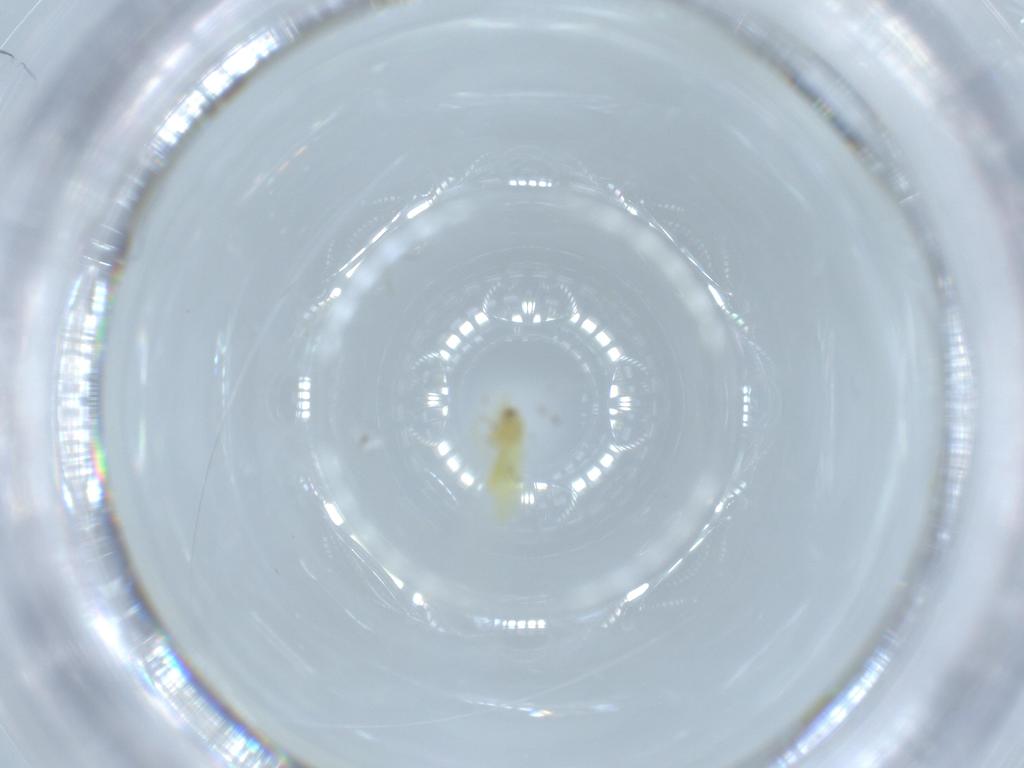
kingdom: Animalia
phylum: Arthropoda
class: Insecta
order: Hemiptera
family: Aleyrodidae
